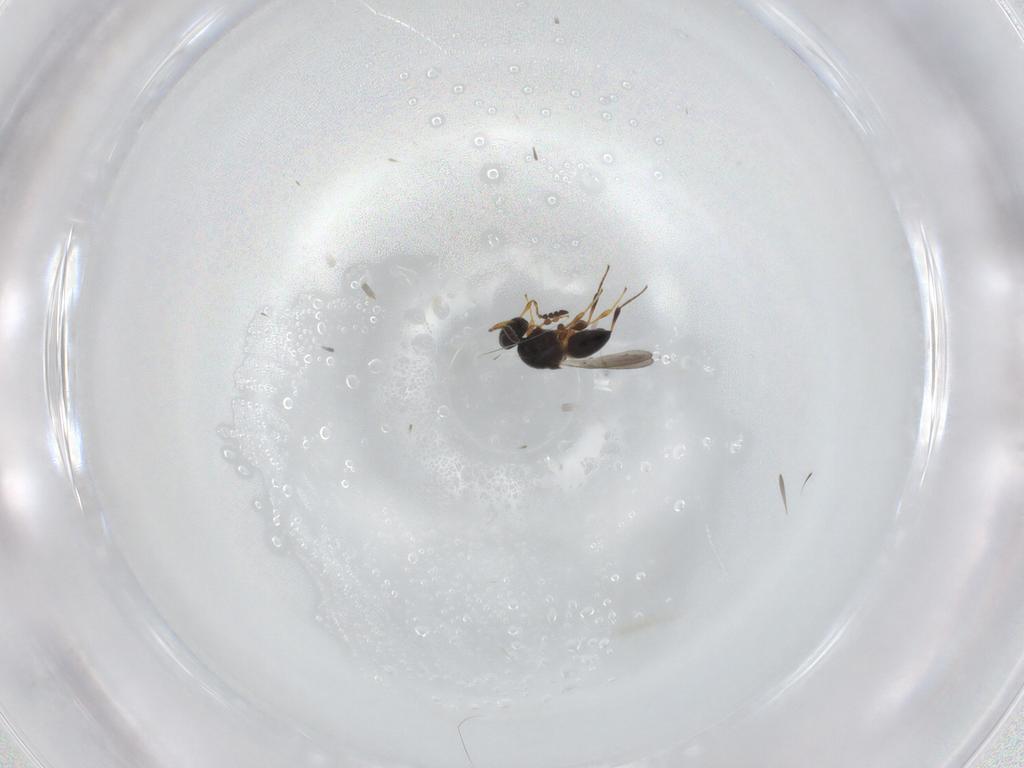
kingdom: Animalia
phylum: Arthropoda
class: Insecta
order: Hymenoptera
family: Platygastridae
